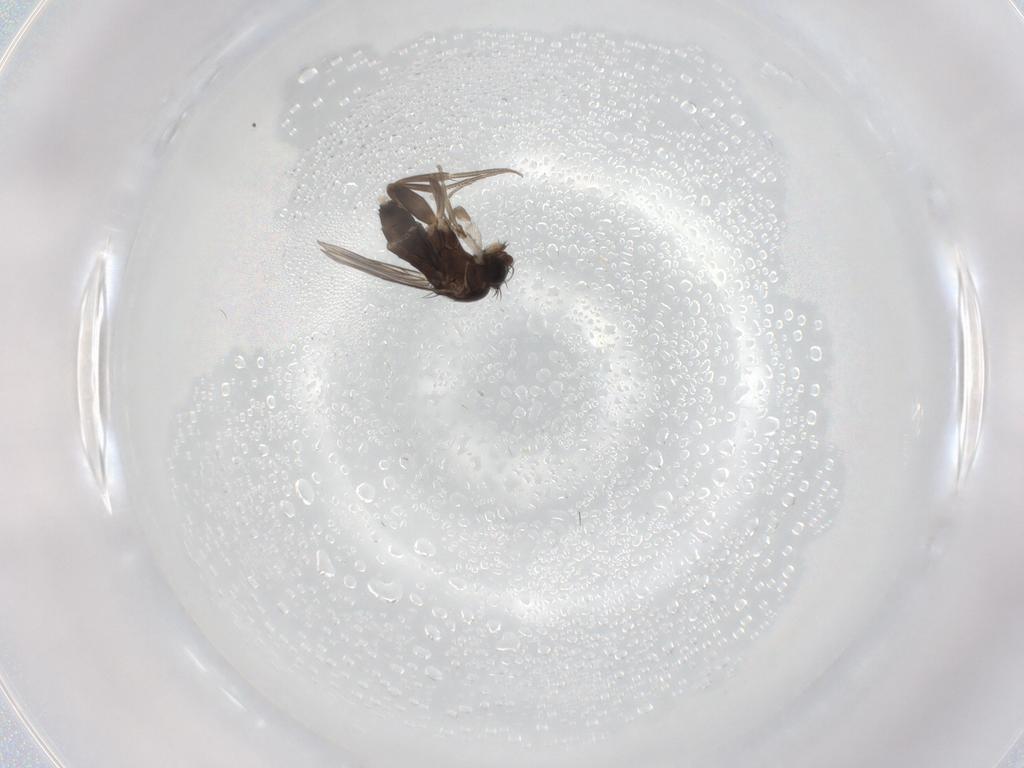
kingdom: Animalia
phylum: Arthropoda
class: Insecta
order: Diptera
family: Phoridae
